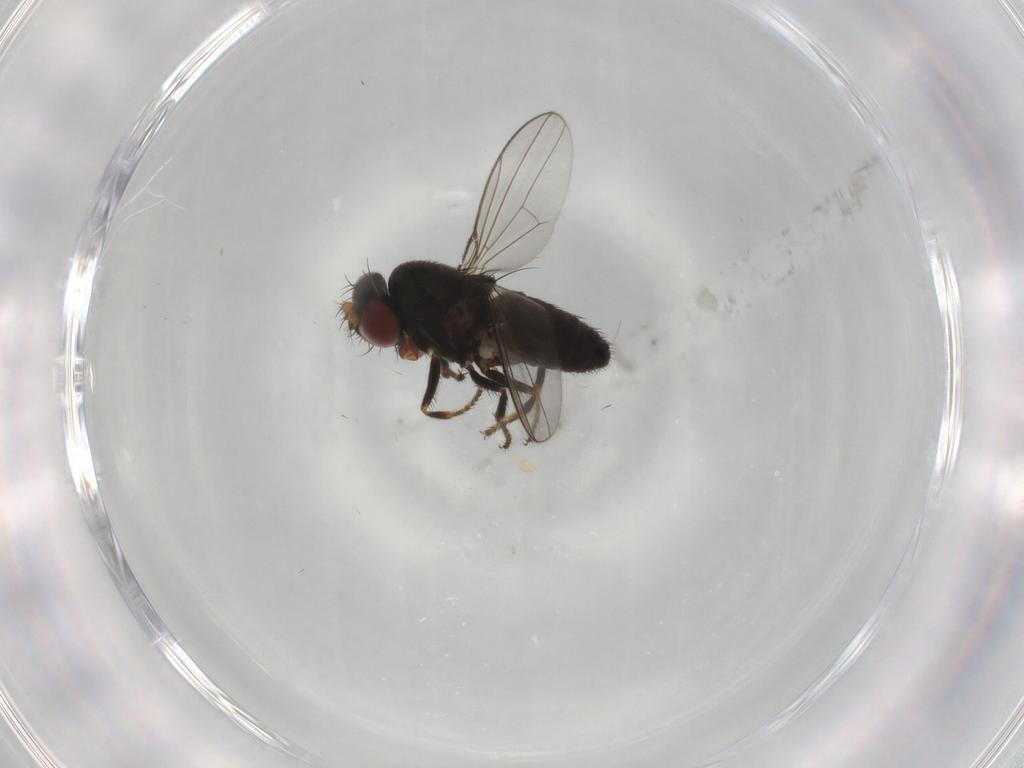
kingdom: Animalia
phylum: Arthropoda
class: Insecta
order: Diptera
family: Ephydridae
